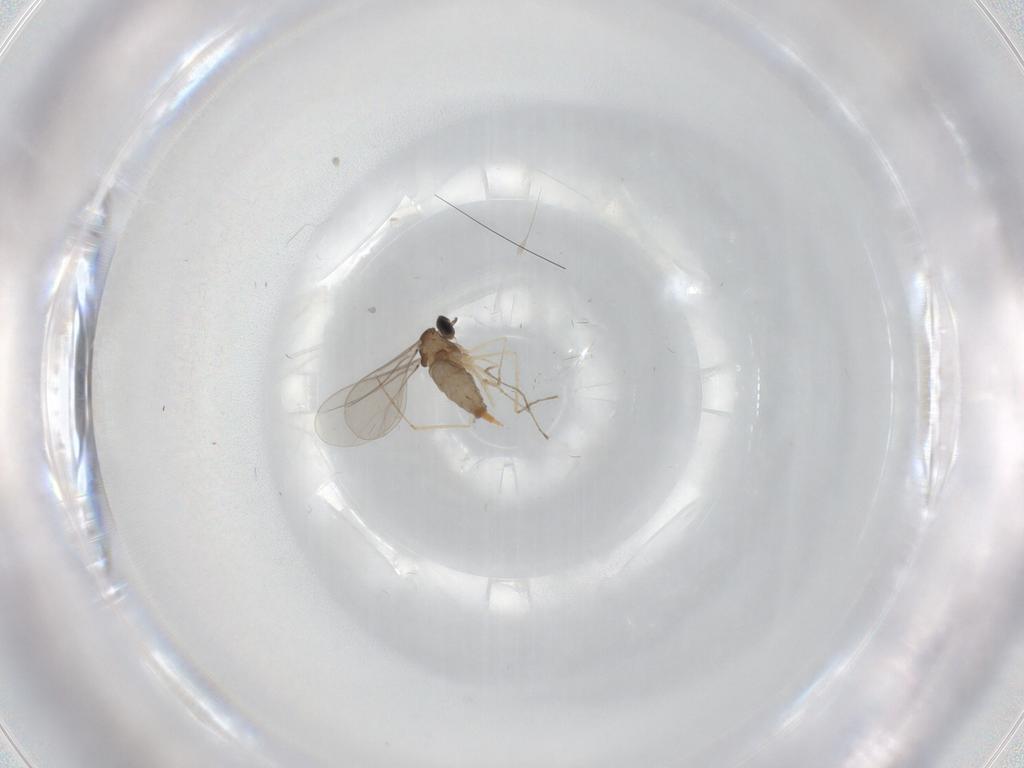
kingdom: Animalia
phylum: Arthropoda
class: Insecta
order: Diptera
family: Cecidomyiidae
